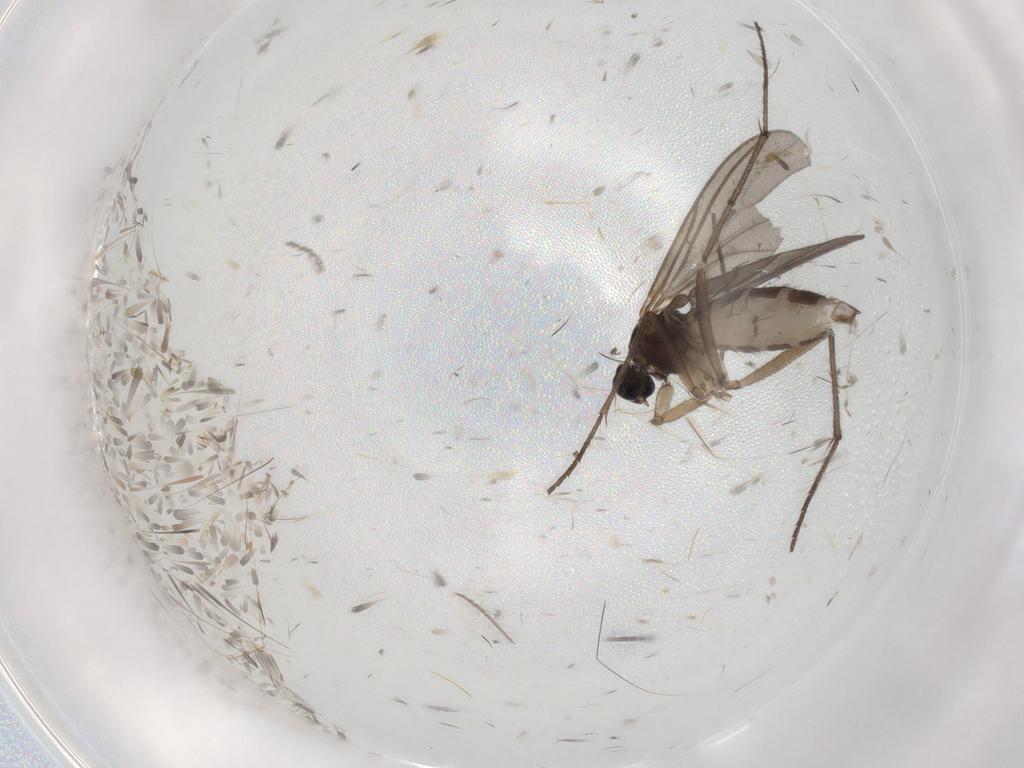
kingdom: Animalia
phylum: Arthropoda
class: Insecta
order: Diptera
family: Sciaridae
